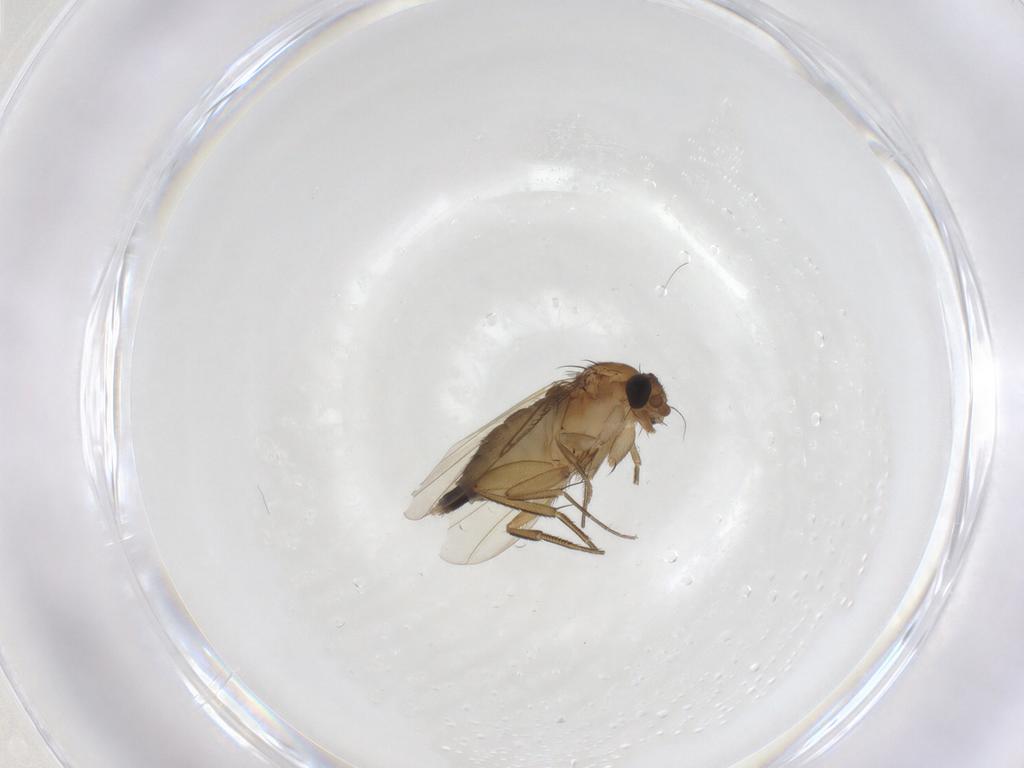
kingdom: Animalia
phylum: Arthropoda
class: Insecta
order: Diptera
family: Phoridae
